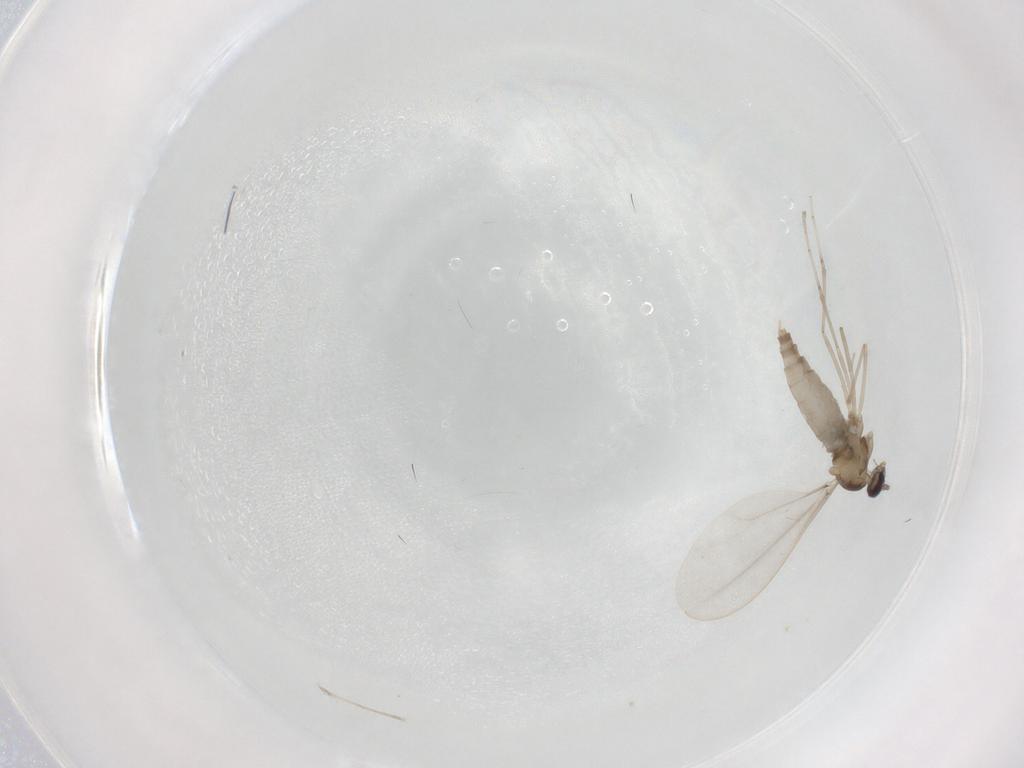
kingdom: Animalia
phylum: Arthropoda
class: Insecta
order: Diptera
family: Cecidomyiidae
